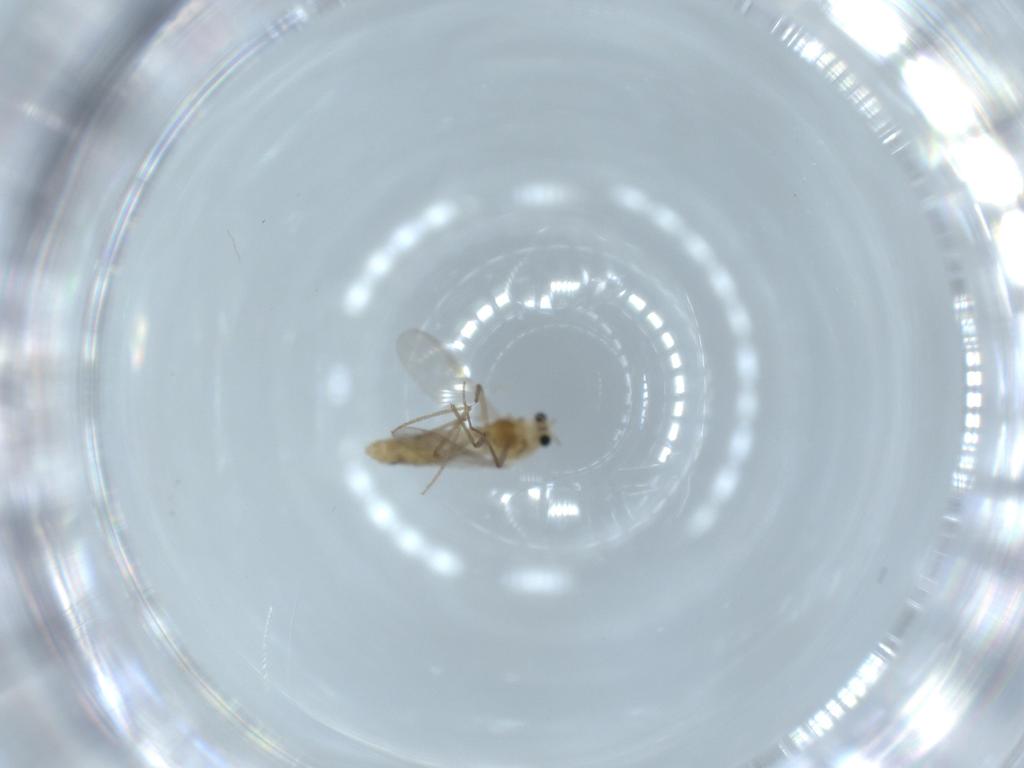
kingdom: Animalia
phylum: Arthropoda
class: Insecta
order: Diptera
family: Chironomidae
